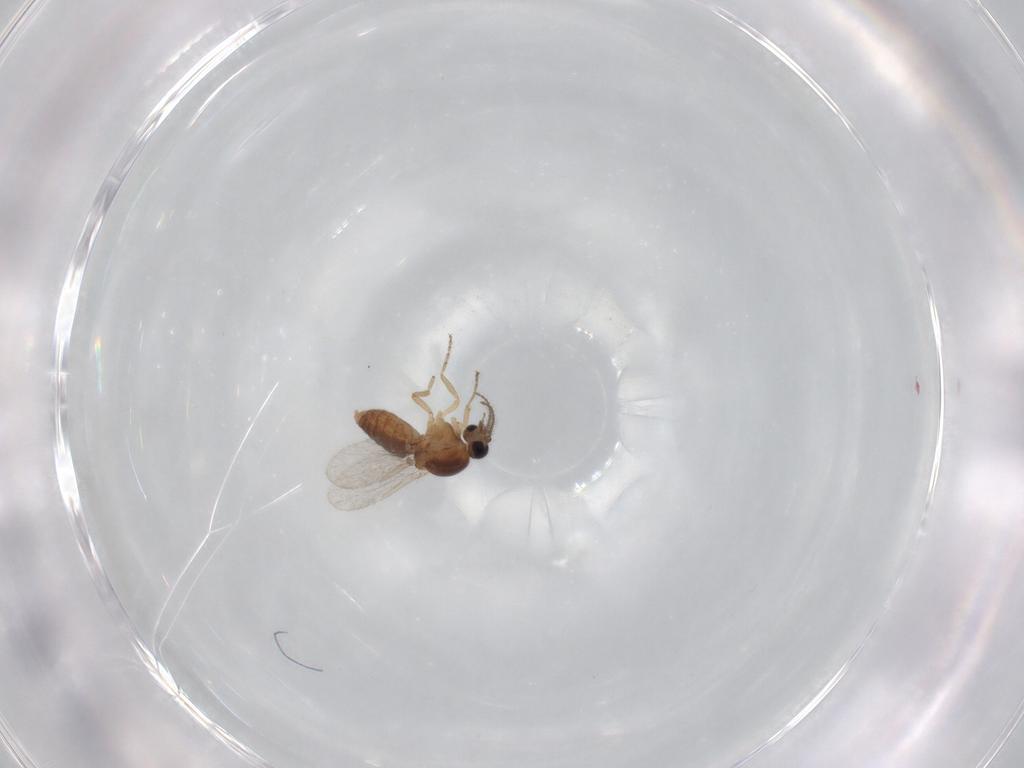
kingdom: Animalia
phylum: Arthropoda
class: Insecta
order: Diptera
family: Ceratopogonidae
